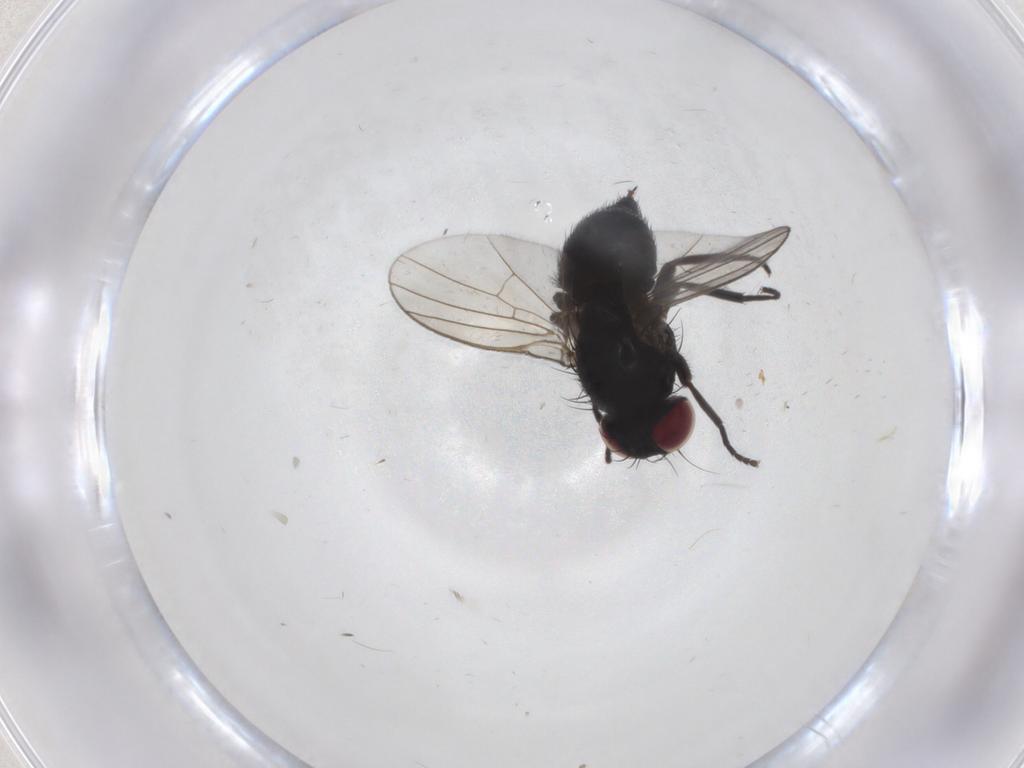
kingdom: Animalia
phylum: Arthropoda
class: Insecta
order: Diptera
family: Agromyzidae
